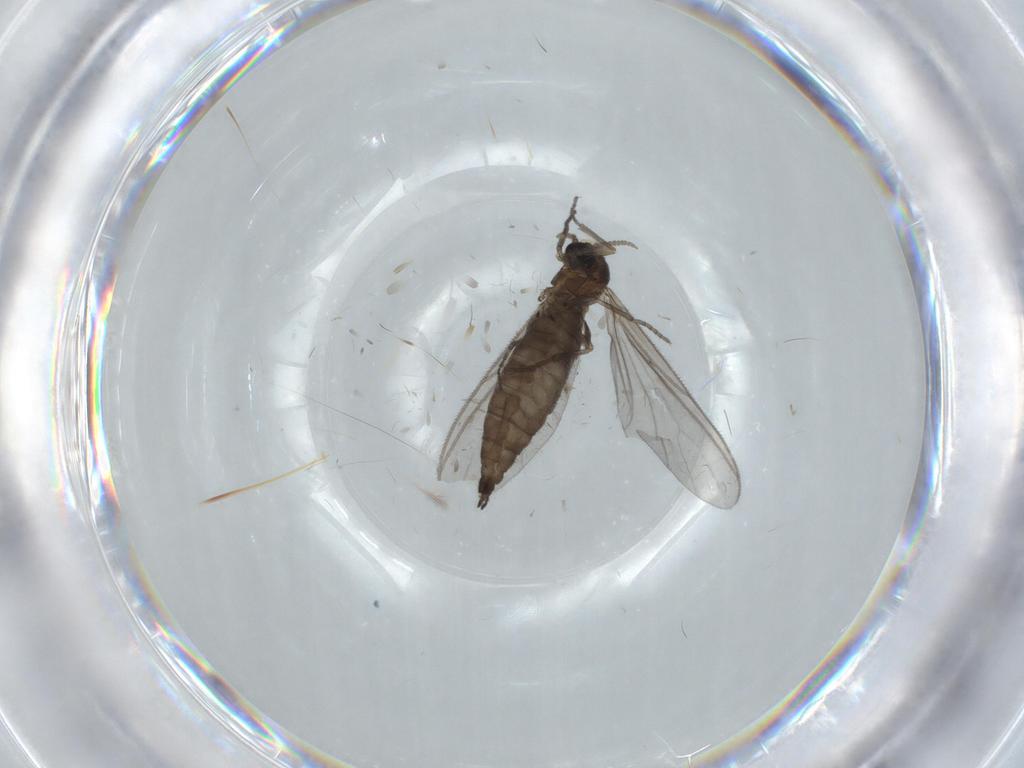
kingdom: Animalia
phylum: Arthropoda
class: Insecta
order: Diptera
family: Sciaridae
